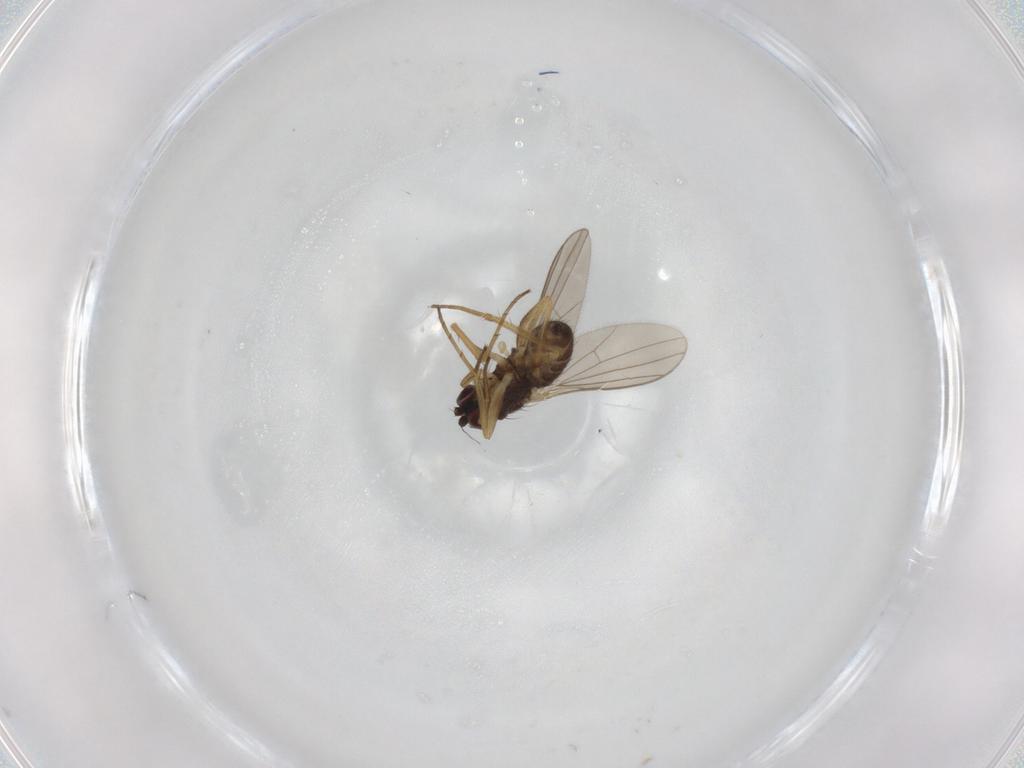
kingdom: Animalia
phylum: Arthropoda
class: Insecta
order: Diptera
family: Dolichopodidae
